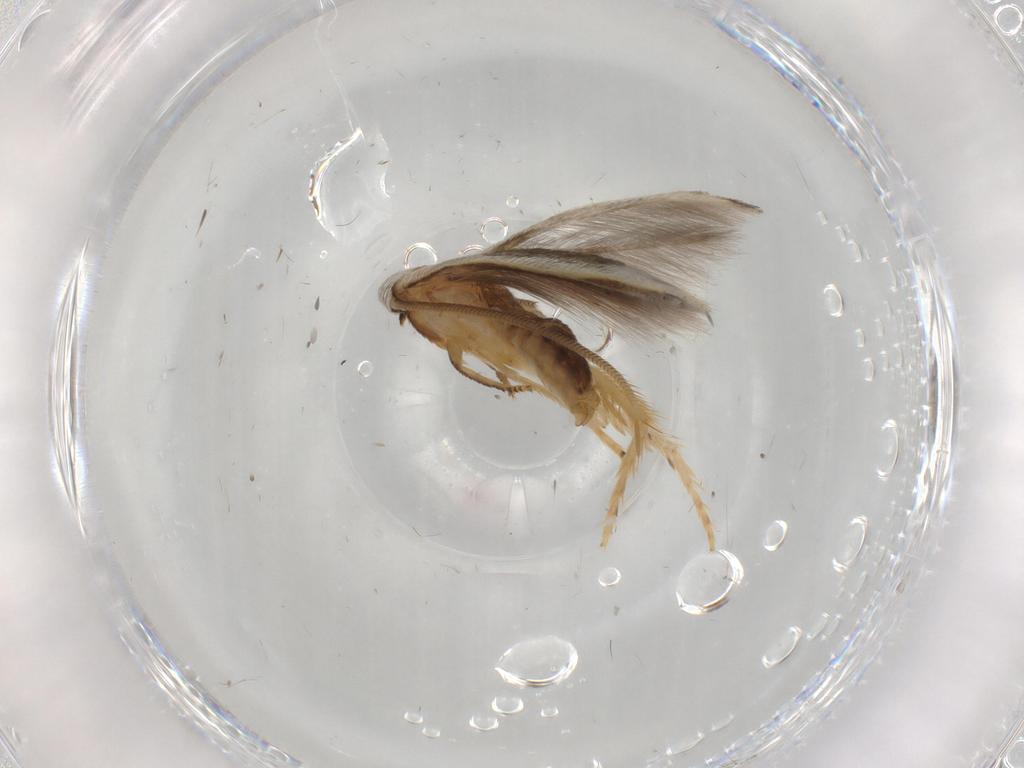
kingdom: Animalia
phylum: Arthropoda
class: Insecta
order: Lepidoptera
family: Opostegidae
